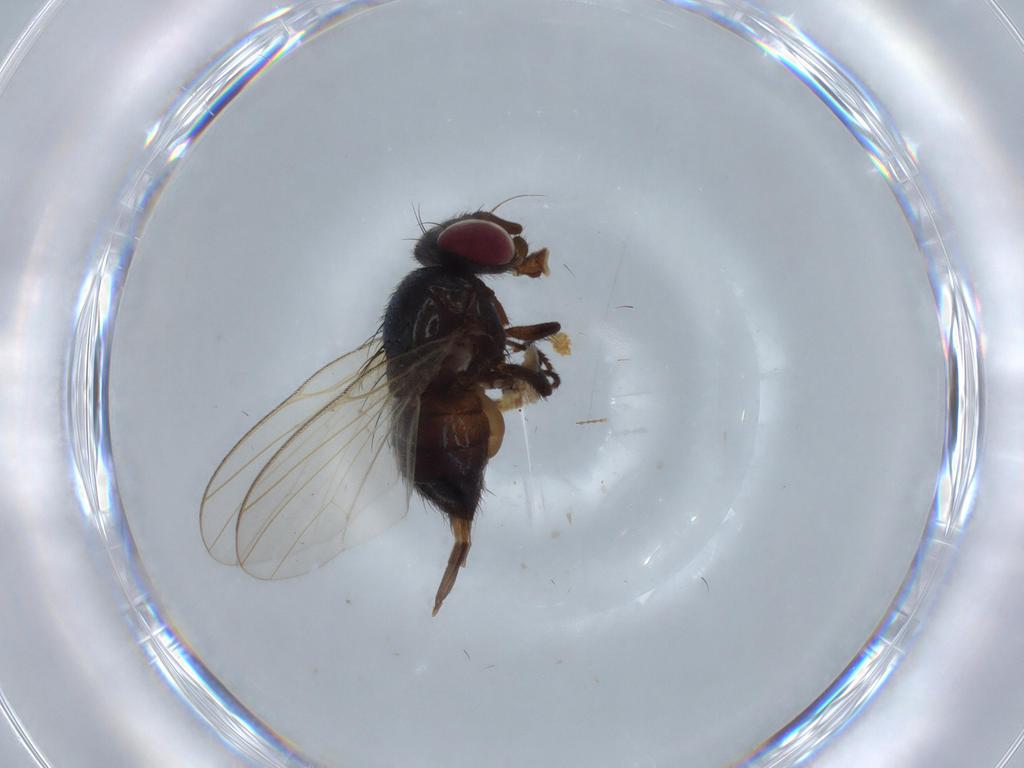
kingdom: Animalia
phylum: Arthropoda
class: Insecta
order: Diptera
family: Lonchaeidae
